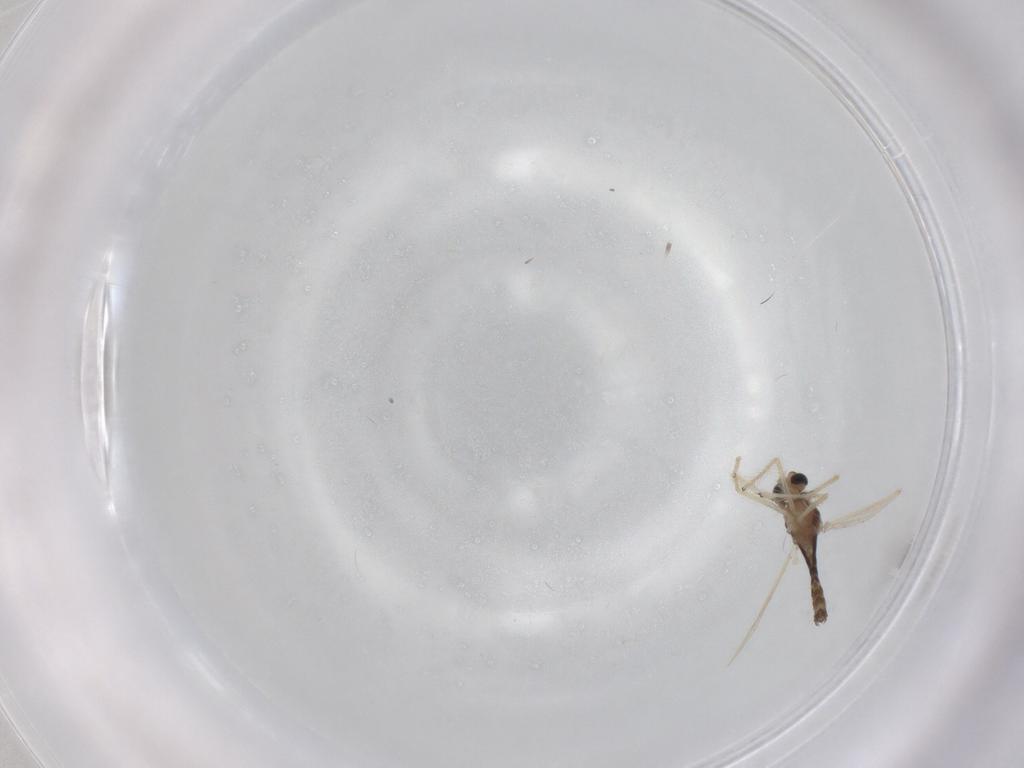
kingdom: Animalia
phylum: Arthropoda
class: Insecta
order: Diptera
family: Chironomidae
